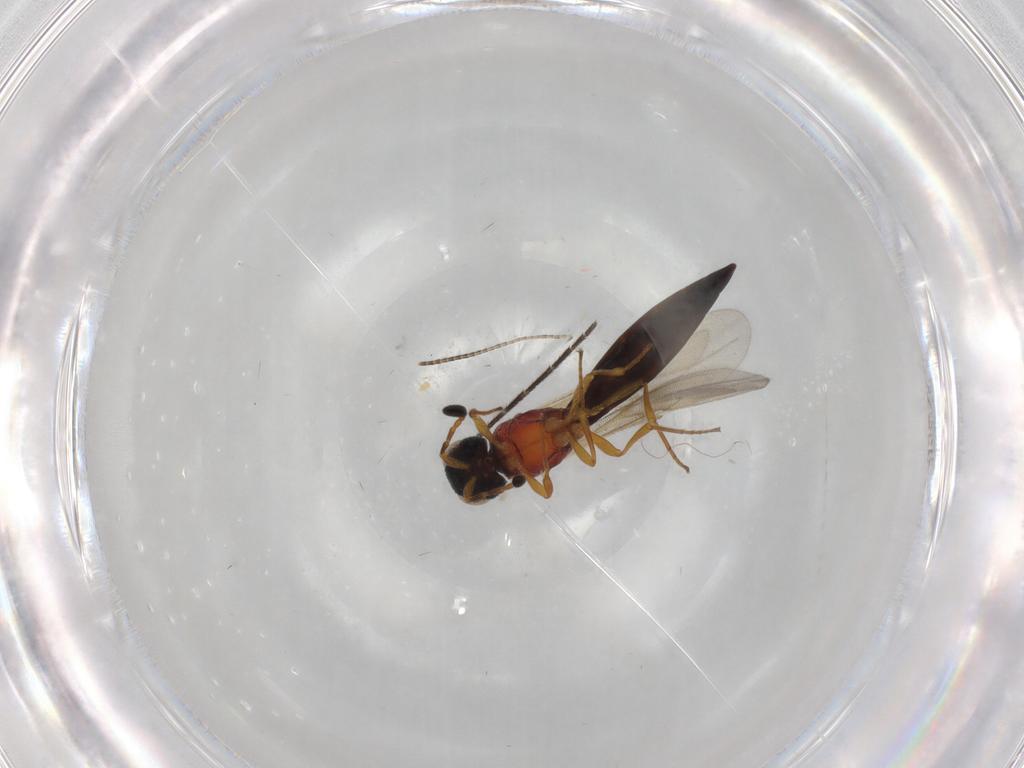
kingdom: Animalia
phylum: Arthropoda
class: Insecta
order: Hymenoptera
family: Scelionidae
